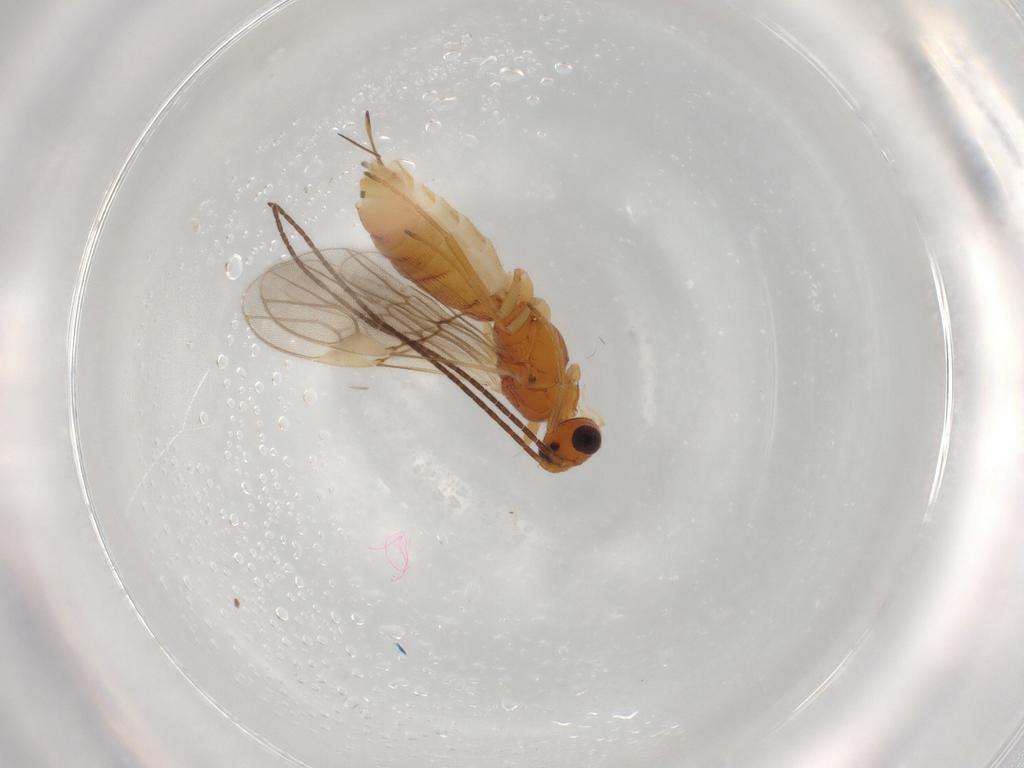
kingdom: Animalia
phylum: Arthropoda
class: Insecta
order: Hymenoptera
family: Braconidae
